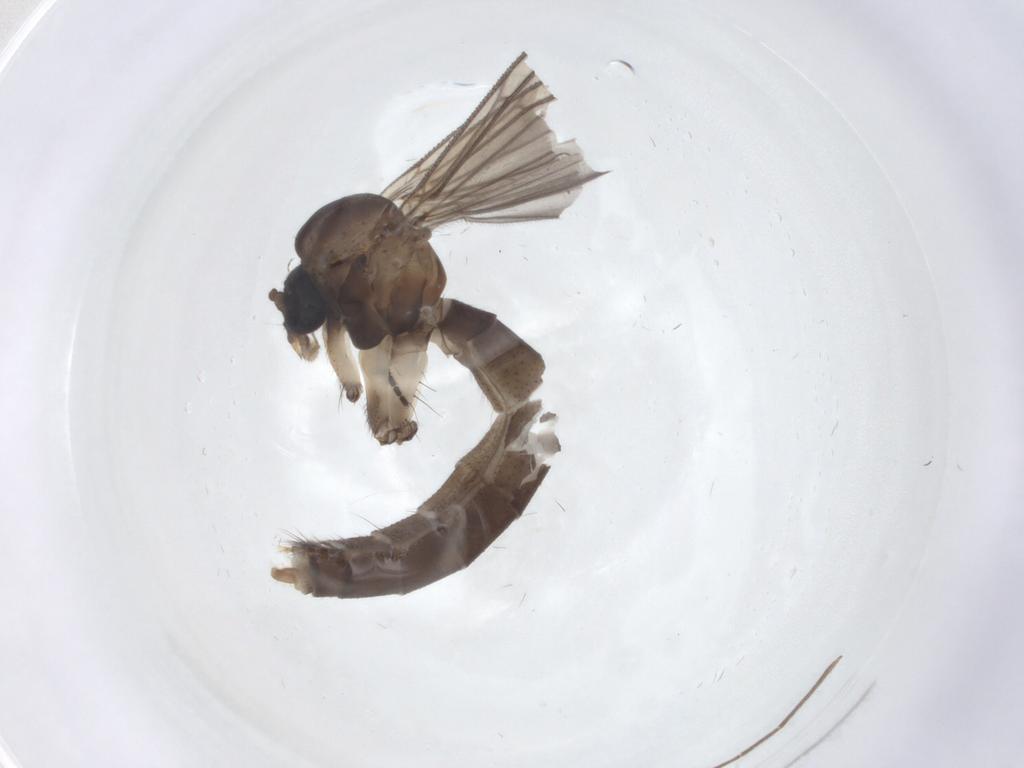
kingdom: Animalia
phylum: Arthropoda
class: Insecta
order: Diptera
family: Sciaridae
